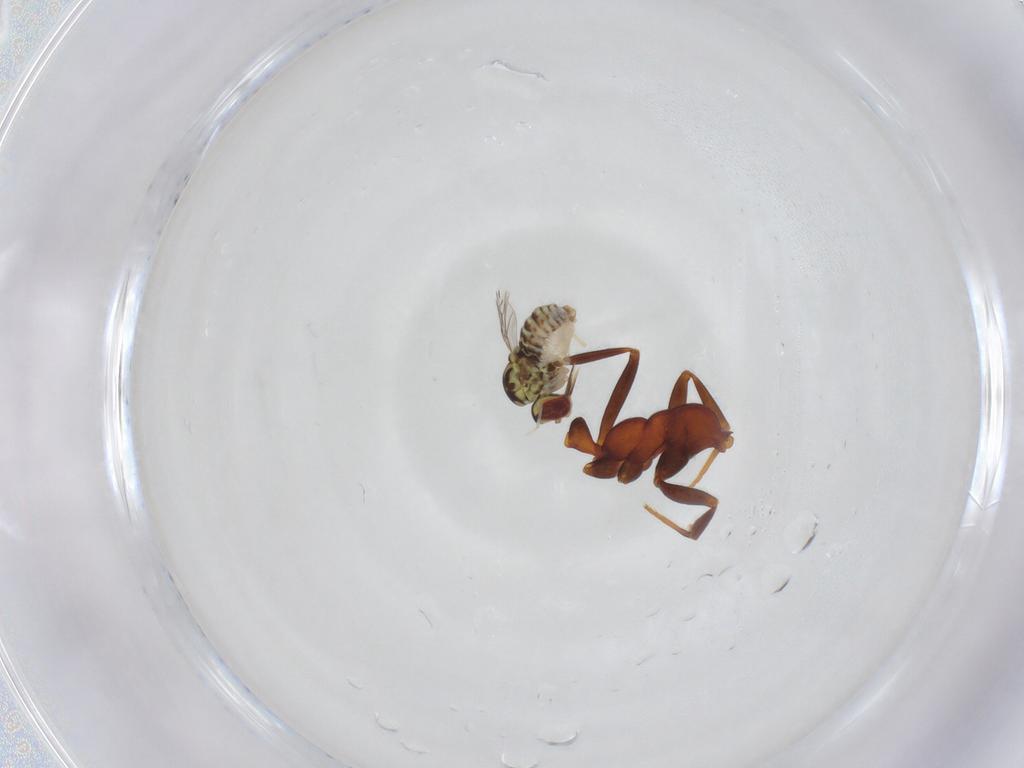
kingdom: Animalia
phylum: Arthropoda
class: Insecta
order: Hymenoptera
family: Formicidae
